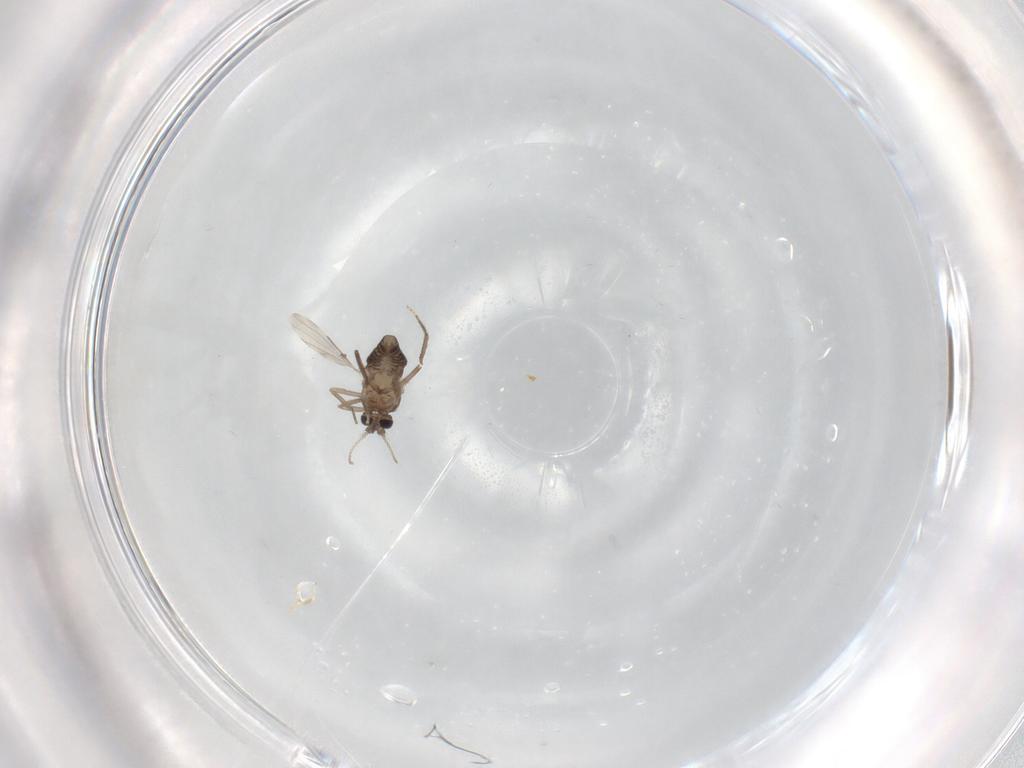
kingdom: Animalia
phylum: Arthropoda
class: Insecta
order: Diptera
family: Ceratopogonidae
